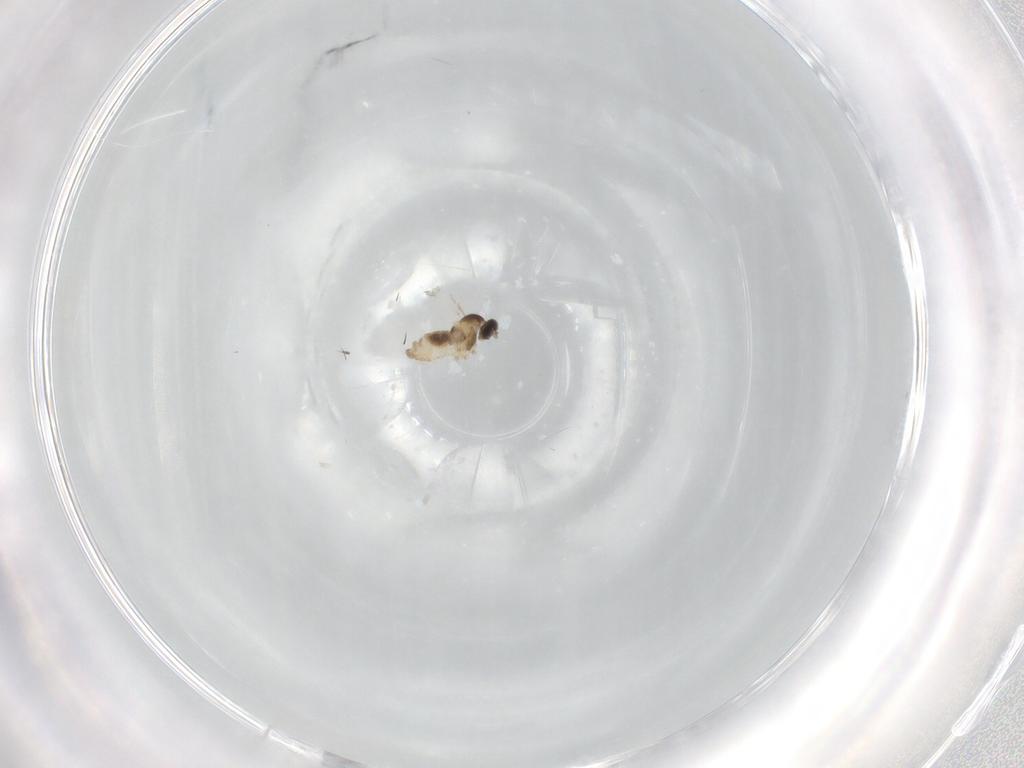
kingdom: Animalia
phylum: Arthropoda
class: Insecta
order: Diptera
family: Cecidomyiidae
